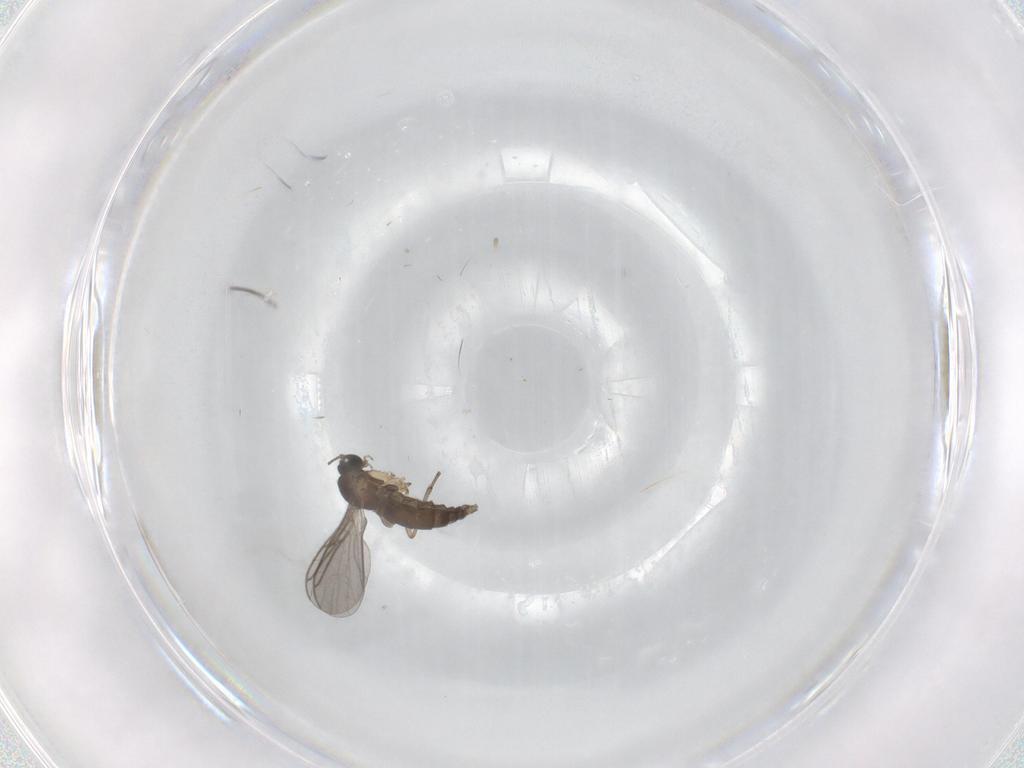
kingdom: Animalia
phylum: Arthropoda
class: Insecta
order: Diptera
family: Sciaridae
